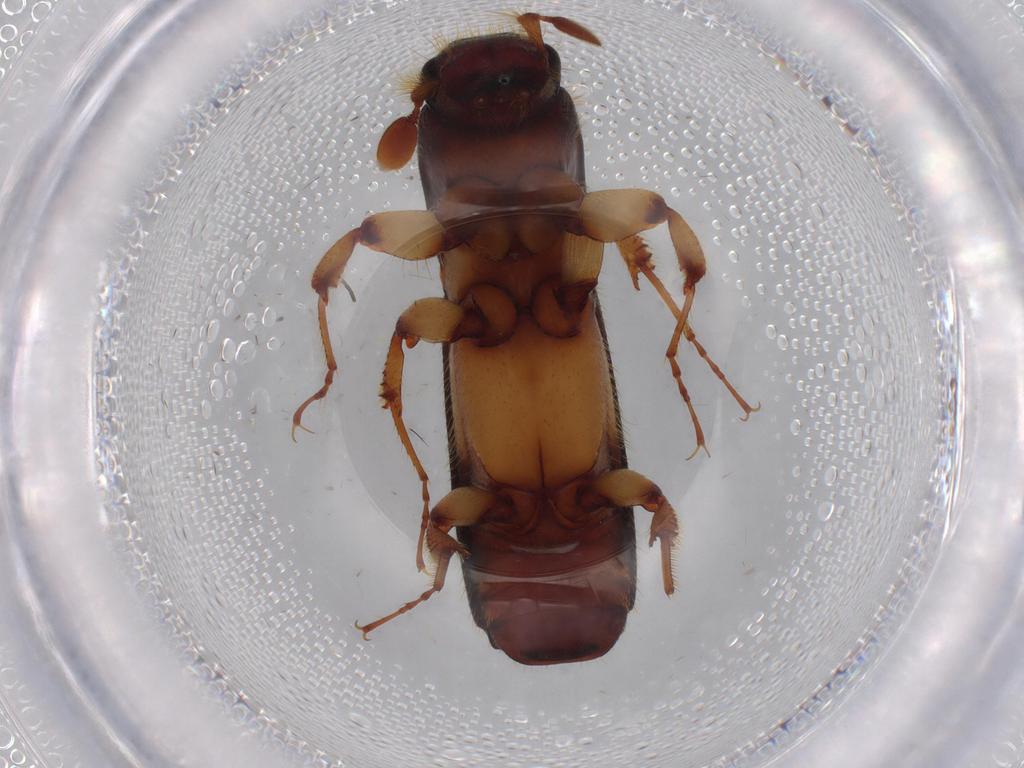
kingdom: Animalia
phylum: Arthropoda
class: Insecta
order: Coleoptera
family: Curculionidae
